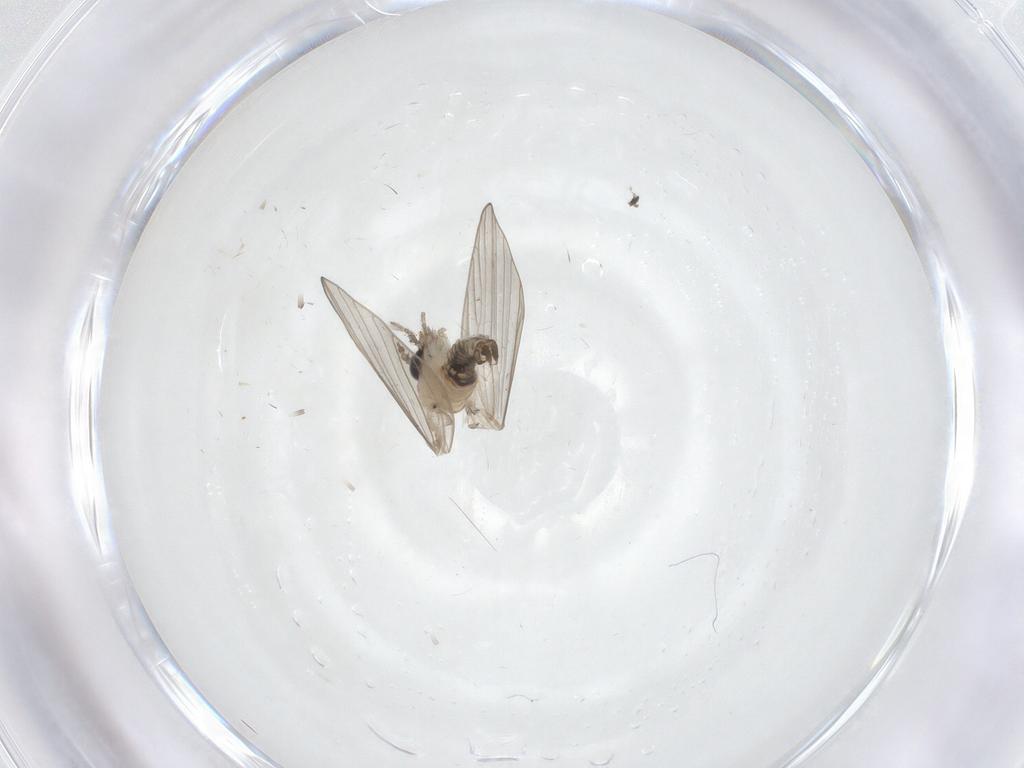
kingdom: Animalia
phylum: Arthropoda
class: Insecta
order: Diptera
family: Psychodidae
